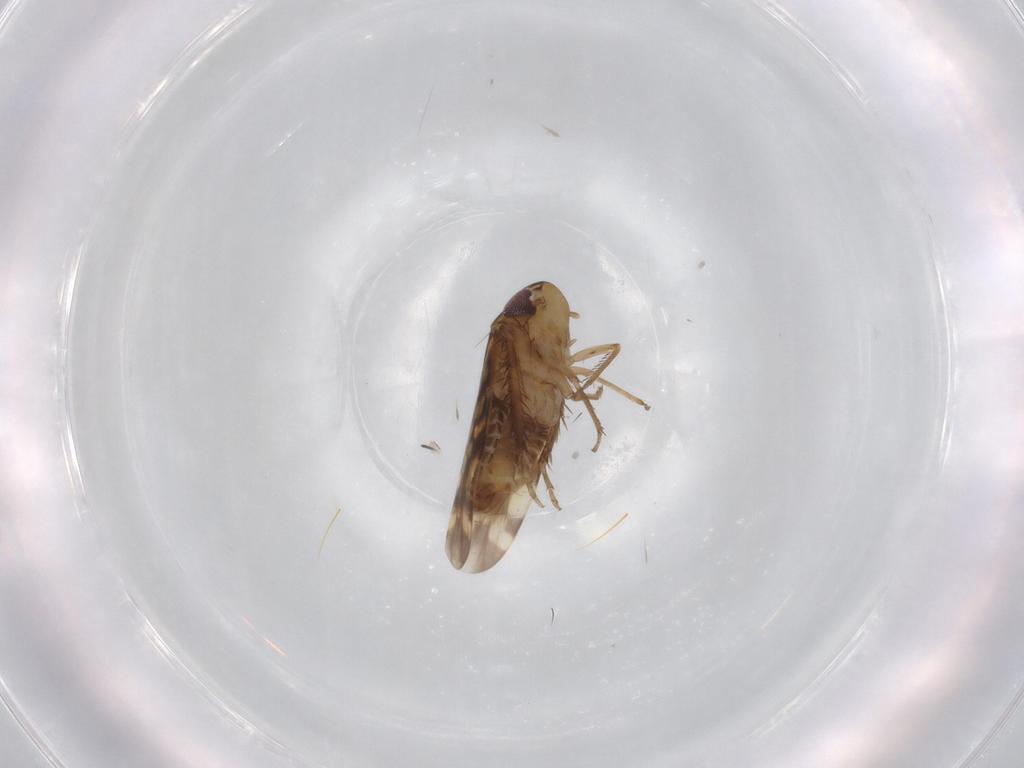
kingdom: Animalia
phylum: Arthropoda
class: Insecta
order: Hemiptera
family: Cicadellidae
